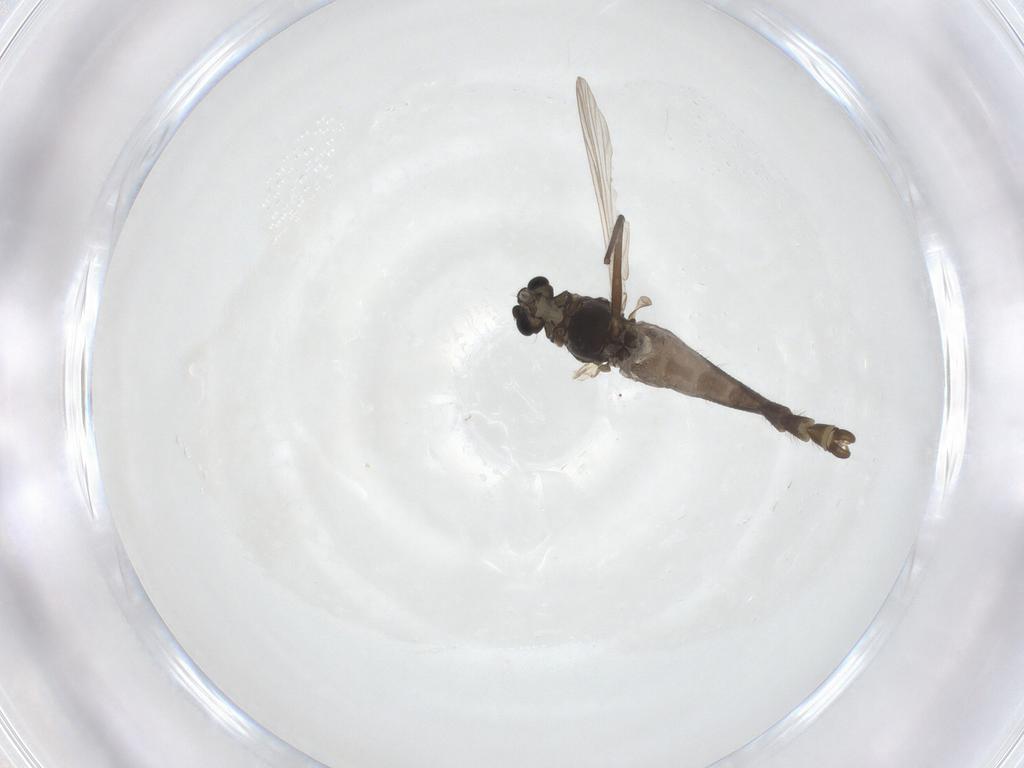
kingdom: Animalia
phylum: Arthropoda
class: Insecta
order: Diptera
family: Chironomidae
